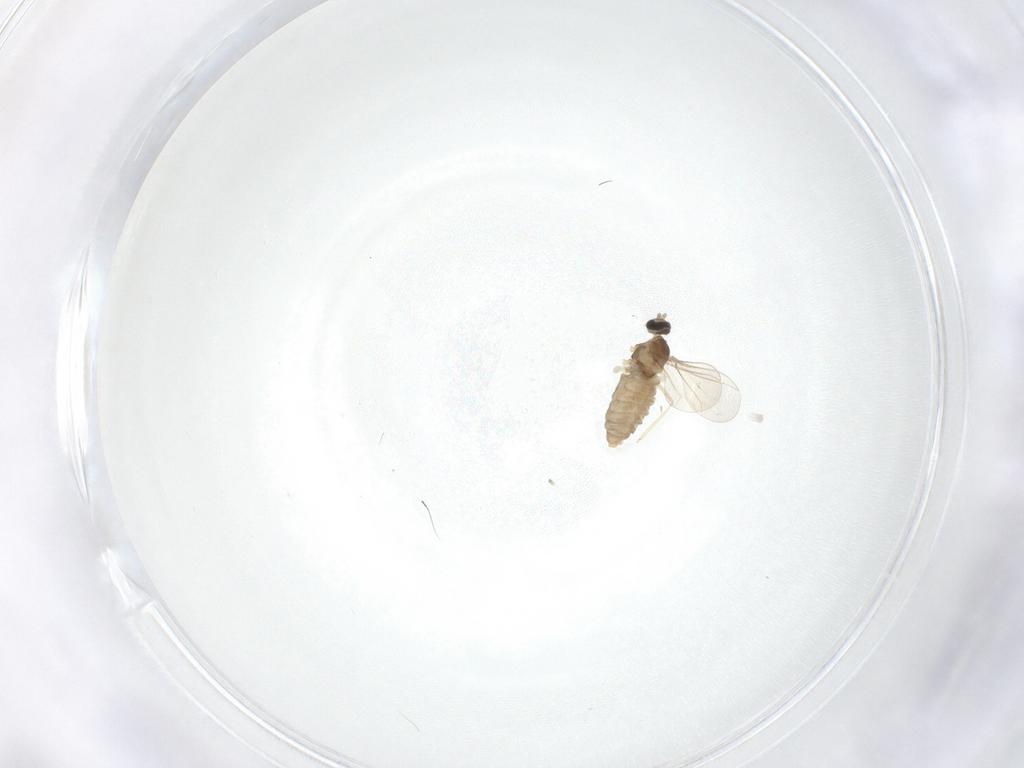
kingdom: Animalia
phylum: Arthropoda
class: Insecta
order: Diptera
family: Cecidomyiidae
